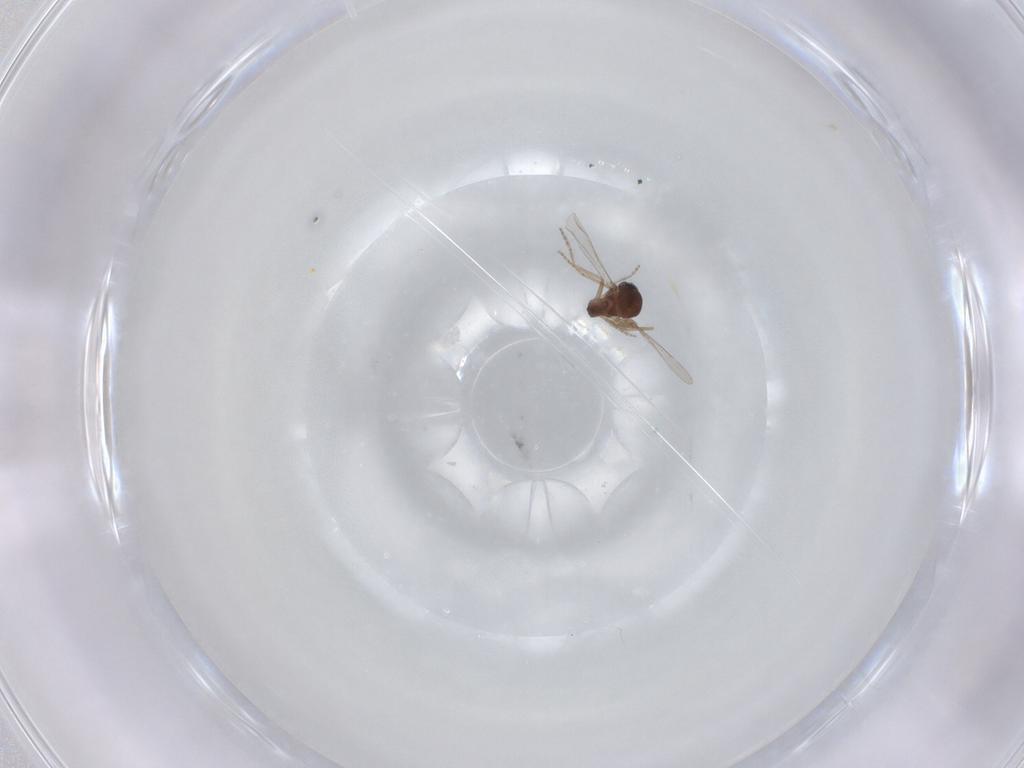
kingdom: Animalia
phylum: Arthropoda
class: Insecta
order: Diptera
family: Ceratopogonidae
